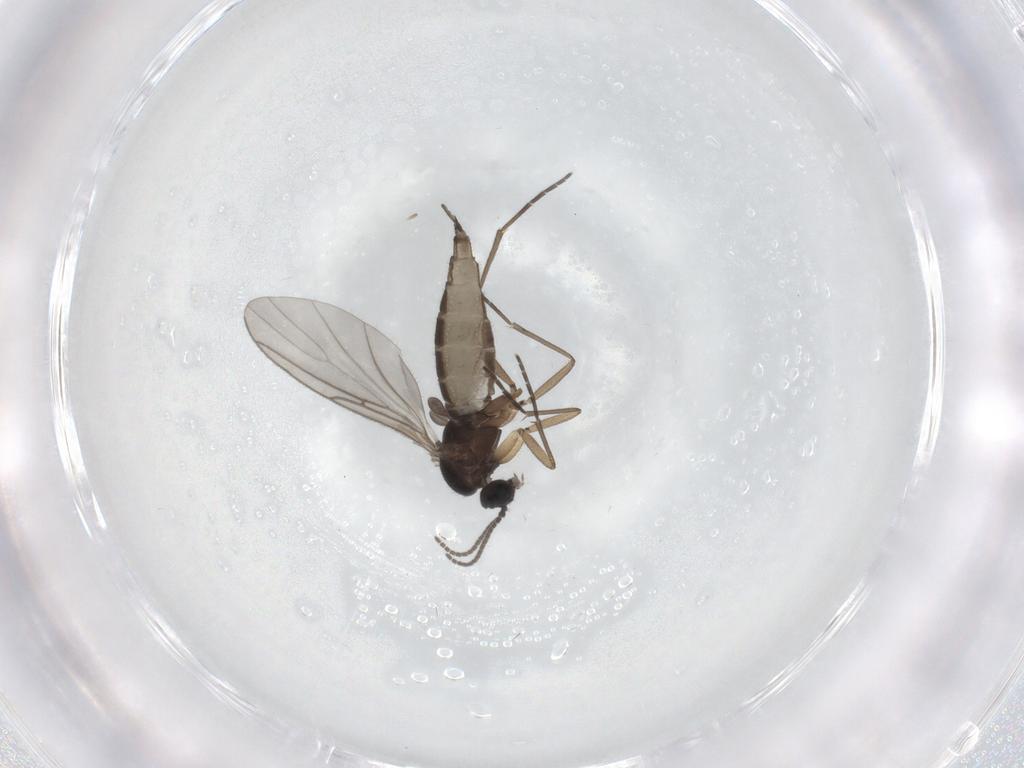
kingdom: Animalia
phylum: Arthropoda
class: Insecta
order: Diptera
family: Sciaridae
